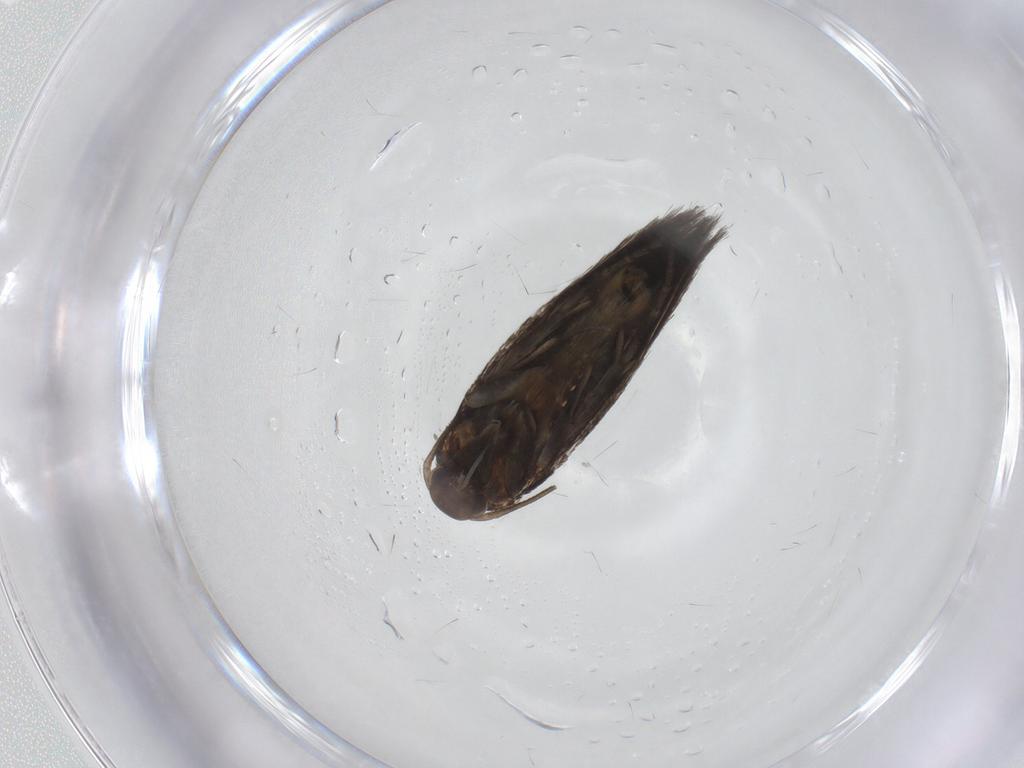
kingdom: Animalia
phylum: Arthropoda
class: Insecta
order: Lepidoptera
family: Elachistidae
